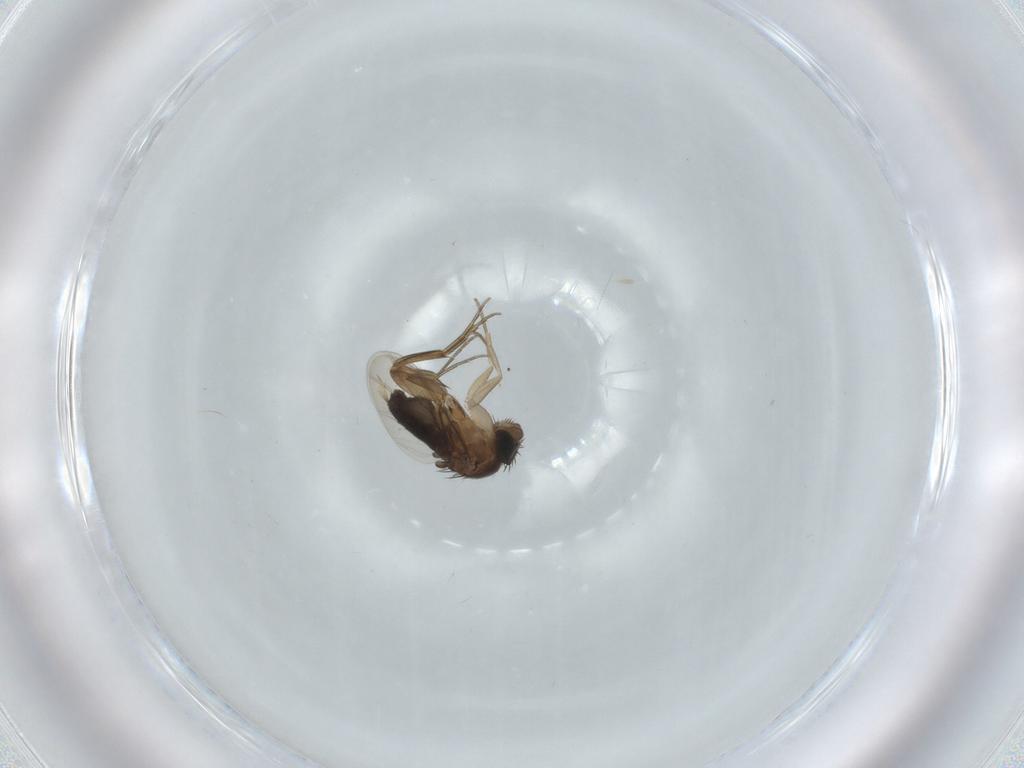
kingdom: Animalia
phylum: Arthropoda
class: Insecta
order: Diptera
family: Phoridae
